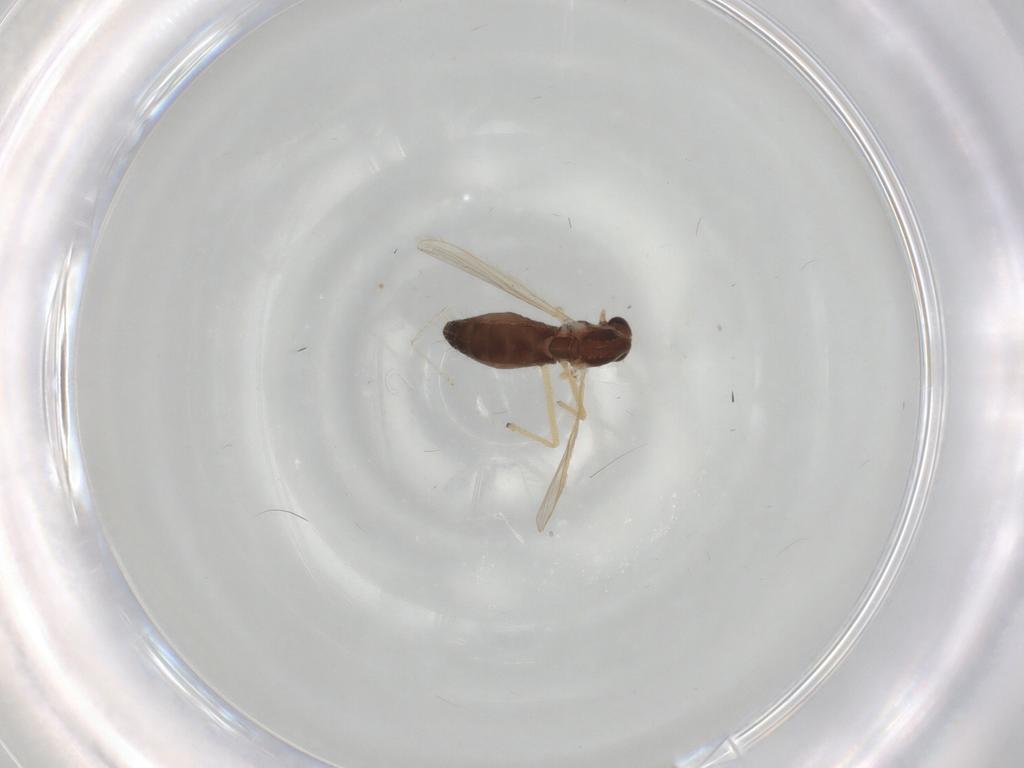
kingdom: Animalia
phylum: Arthropoda
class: Insecta
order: Diptera
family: Chironomidae
